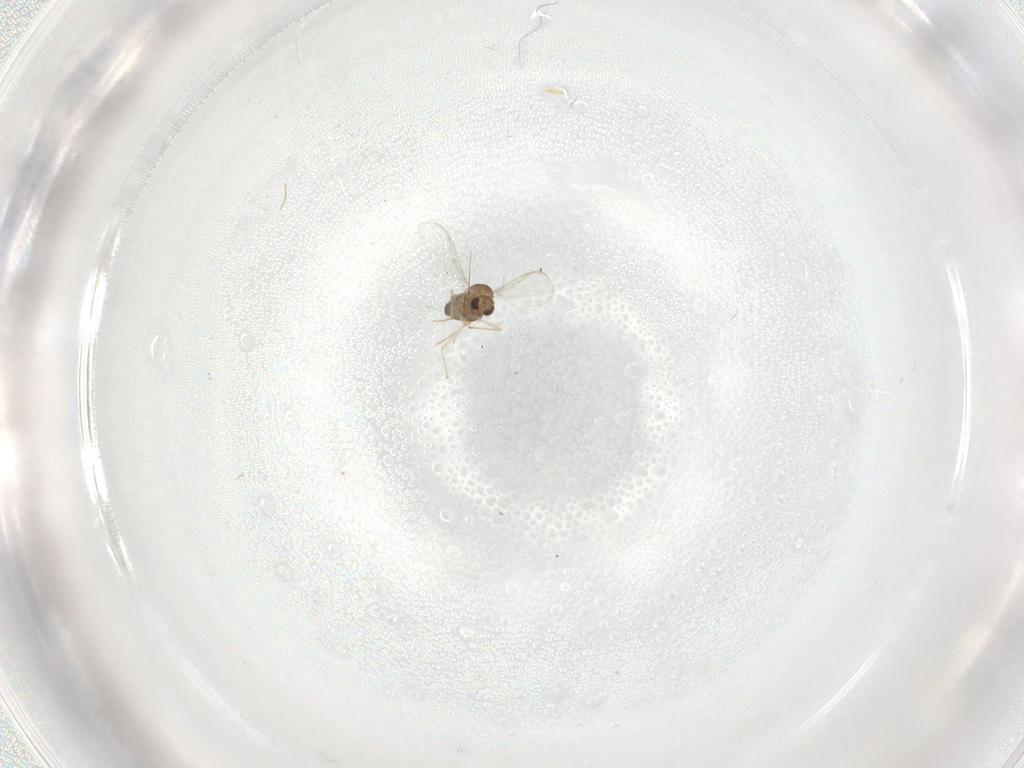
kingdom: Animalia
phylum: Arthropoda
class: Insecta
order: Diptera
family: Chironomidae
